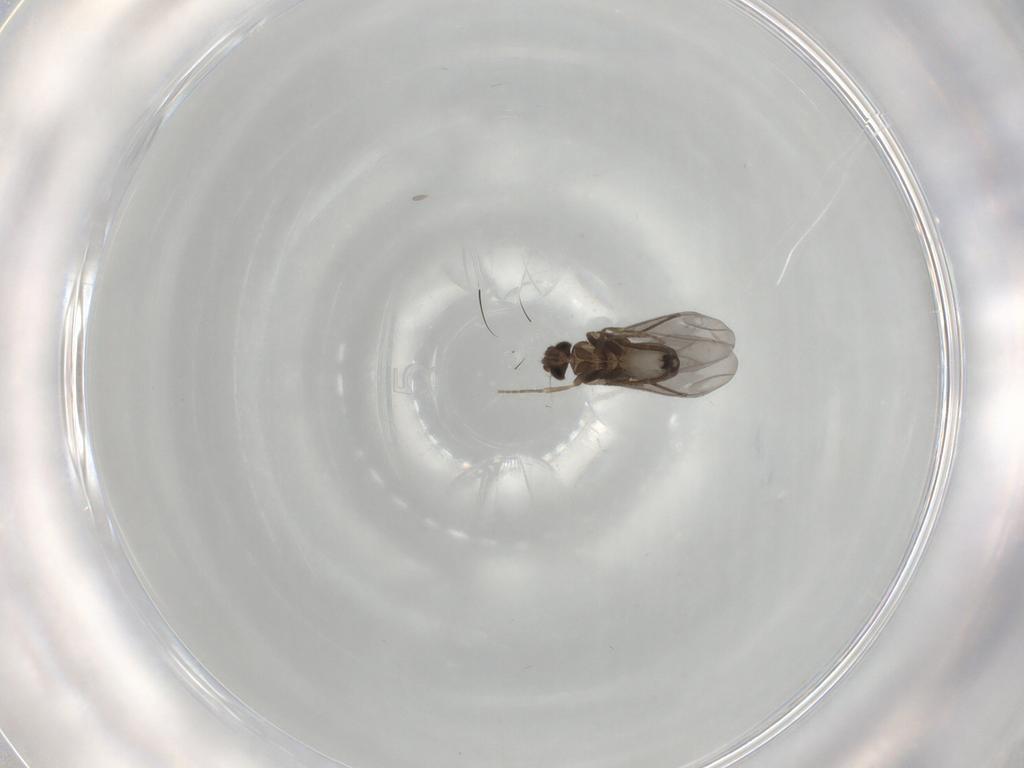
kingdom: Animalia
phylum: Arthropoda
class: Insecta
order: Diptera
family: Phoridae
